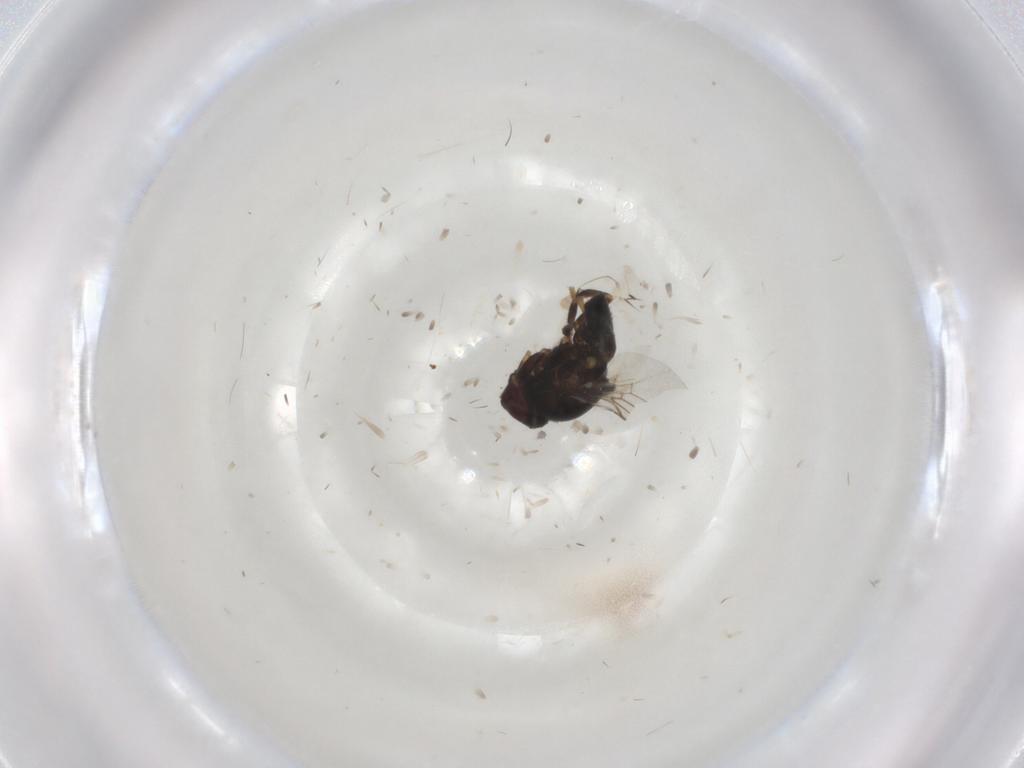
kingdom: Animalia
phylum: Arthropoda
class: Insecta
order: Diptera
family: Chloropidae
